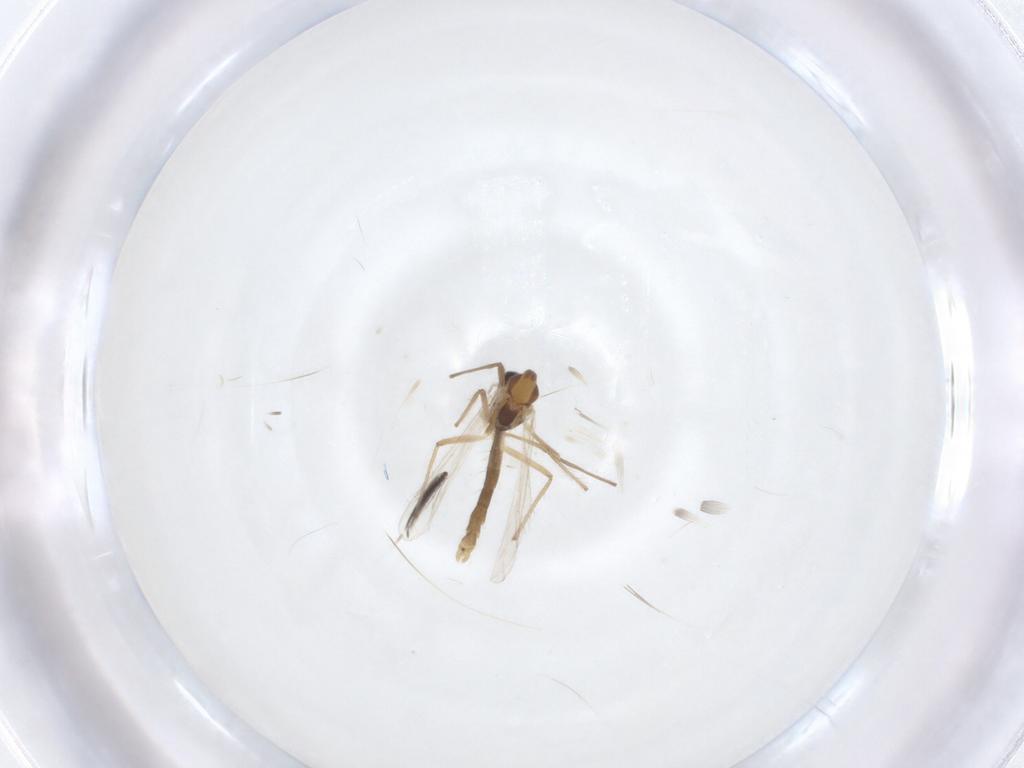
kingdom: Animalia
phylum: Arthropoda
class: Insecta
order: Diptera
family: Chironomidae
